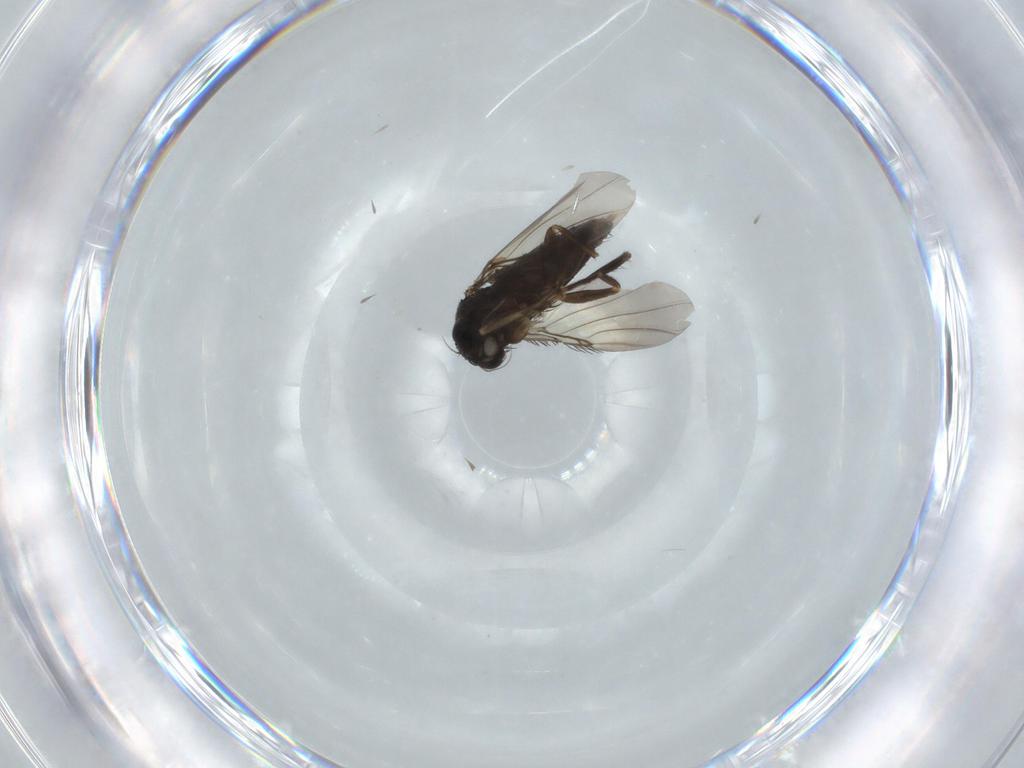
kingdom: Animalia
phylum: Arthropoda
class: Insecta
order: Diptera
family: Phoridae
